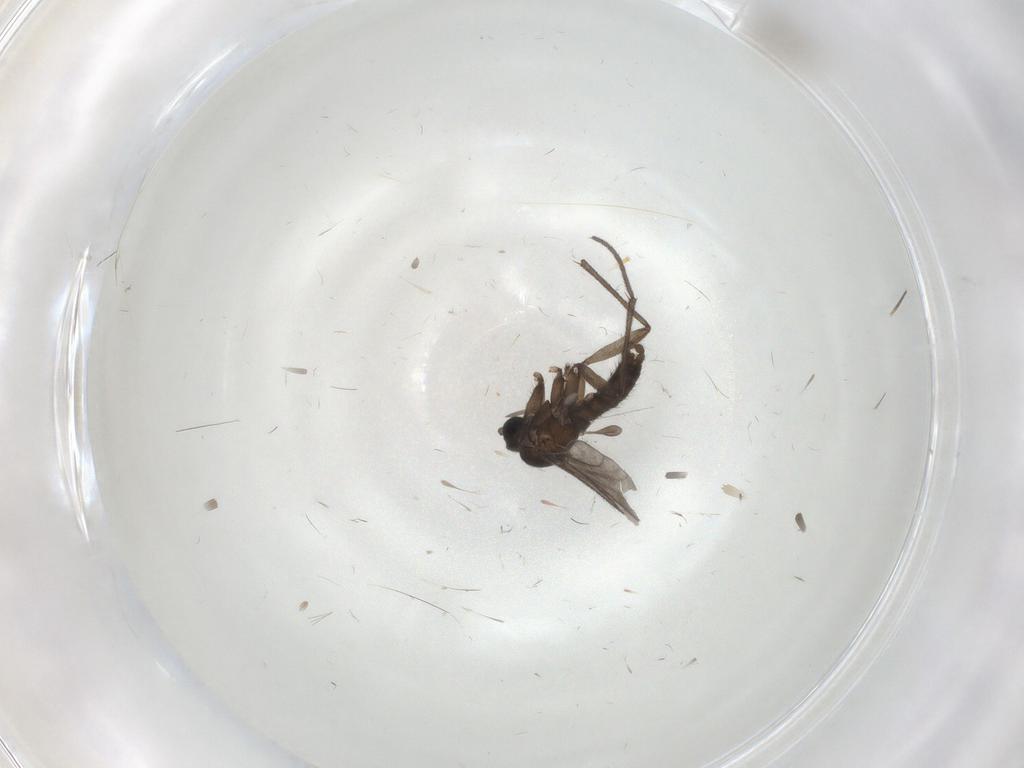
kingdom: Animalia
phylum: Arthropoda
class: Insecta
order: Diptera
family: Sciaridae
